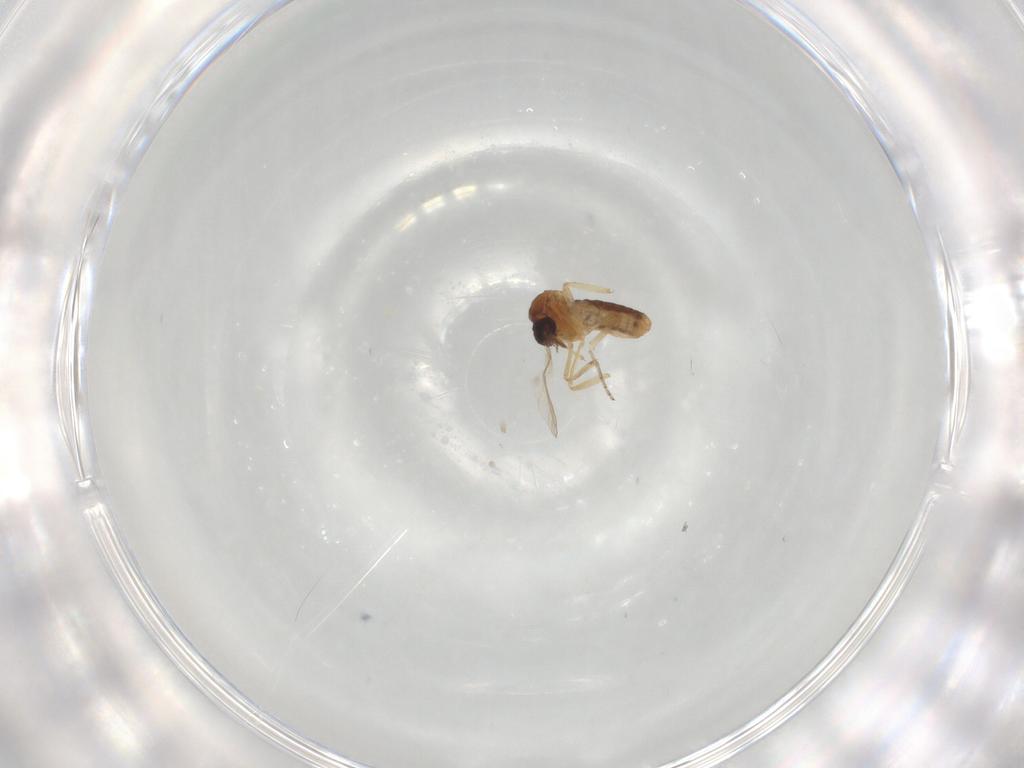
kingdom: Animalia
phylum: Arthropoda
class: Insecta
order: Diptera
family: Ceratopogonidae
